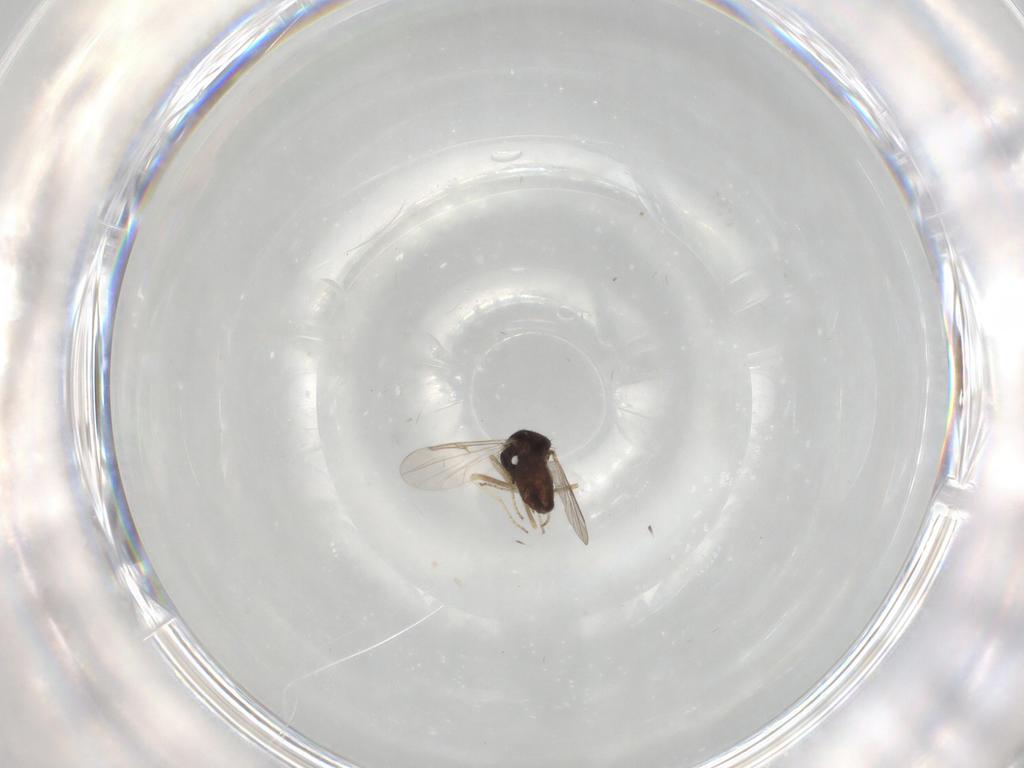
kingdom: Animalia
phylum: Arthropoda
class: Insecta
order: Diptera
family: Ceratopogonidae
